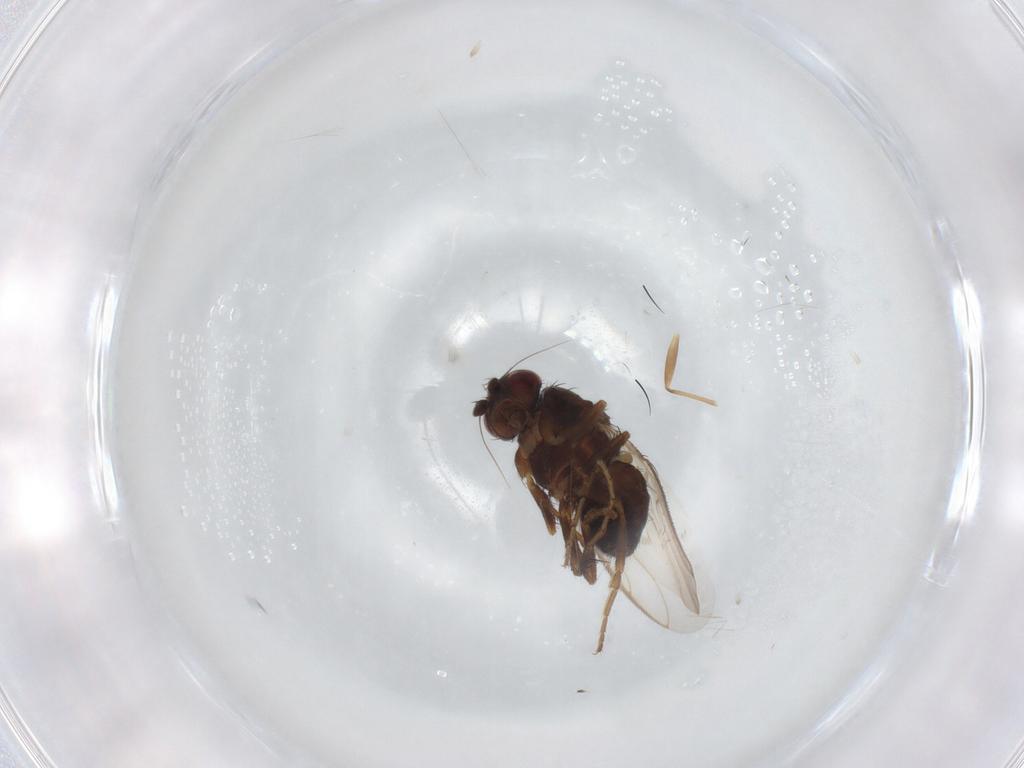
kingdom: Animalia
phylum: Arthropoda
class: Insecta
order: Diptera
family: Sphaeroceridae
